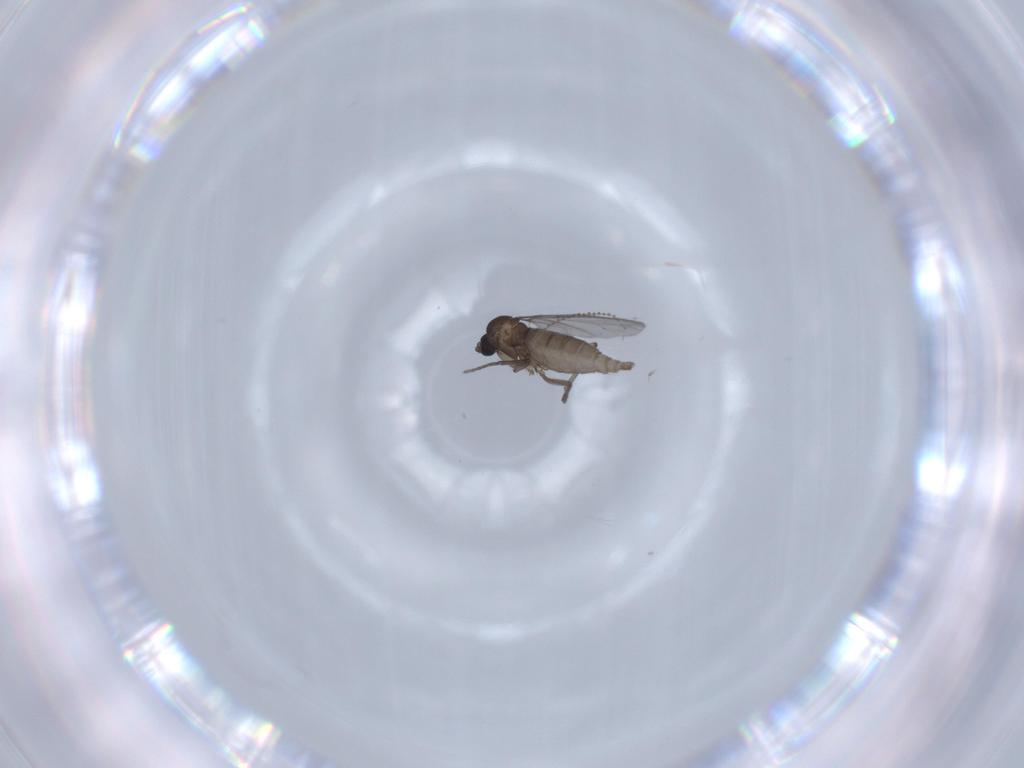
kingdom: Animalia
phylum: Arthropoda
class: Insecta
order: Diptera
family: Sciaridae
